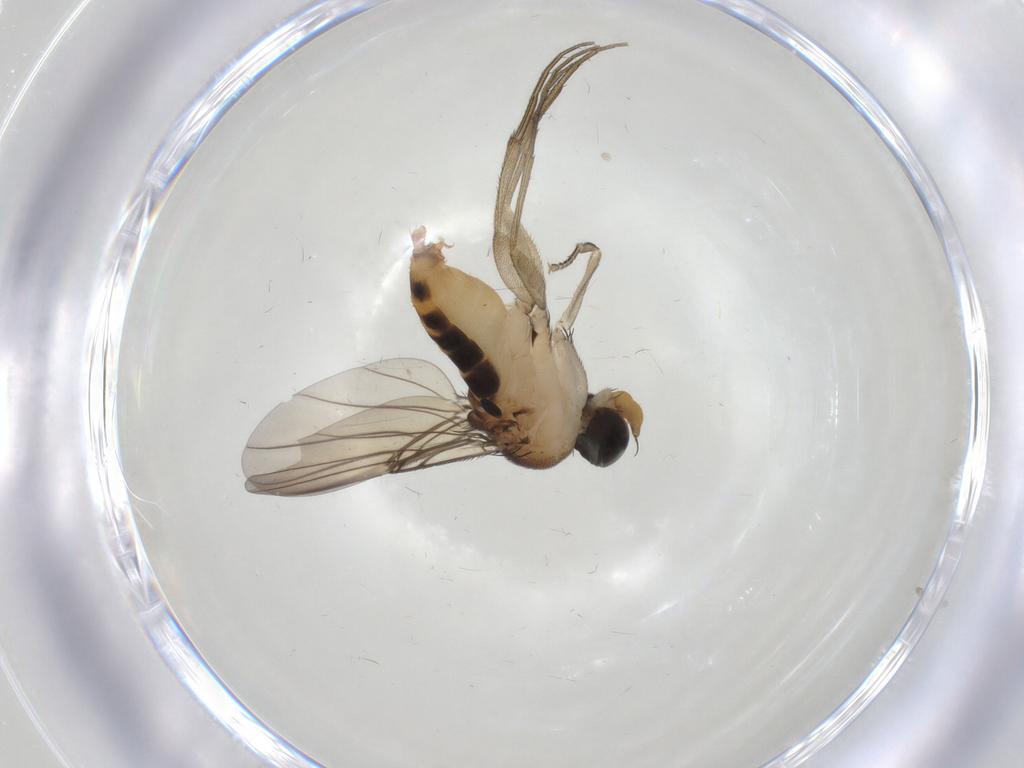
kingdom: Animalia
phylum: Arthropoda
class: Insecta
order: Diptera
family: Phoridae
